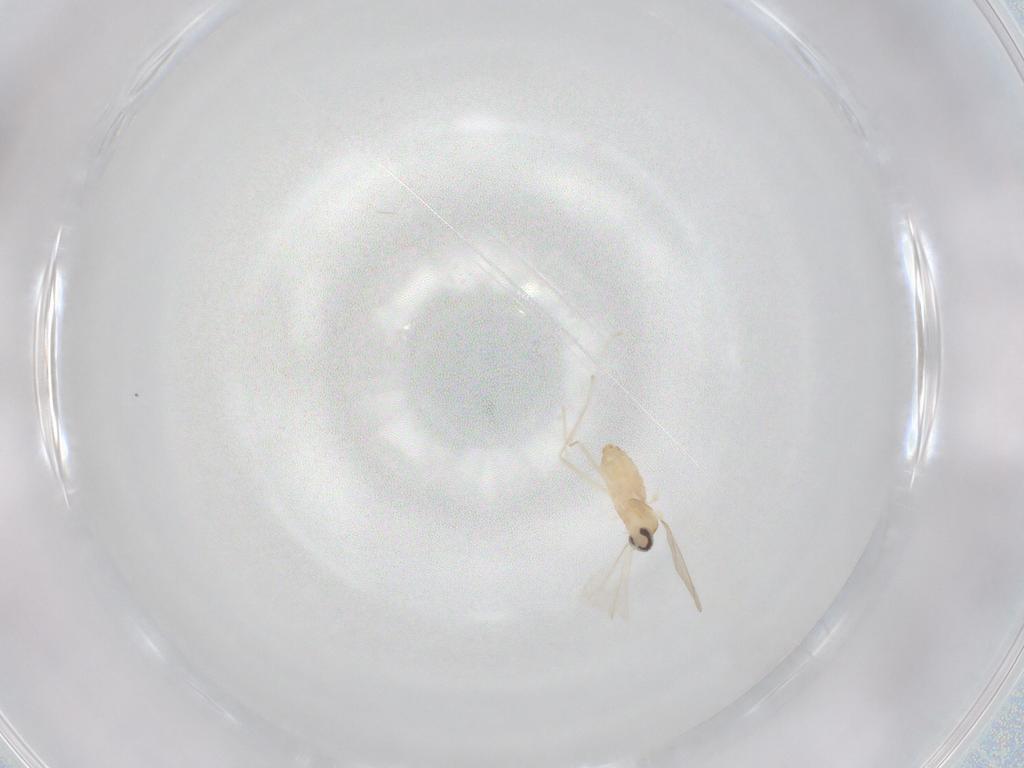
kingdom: Animalia
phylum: Arthropoda
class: Insecta
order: Diptera
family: Cecidomyiidae
